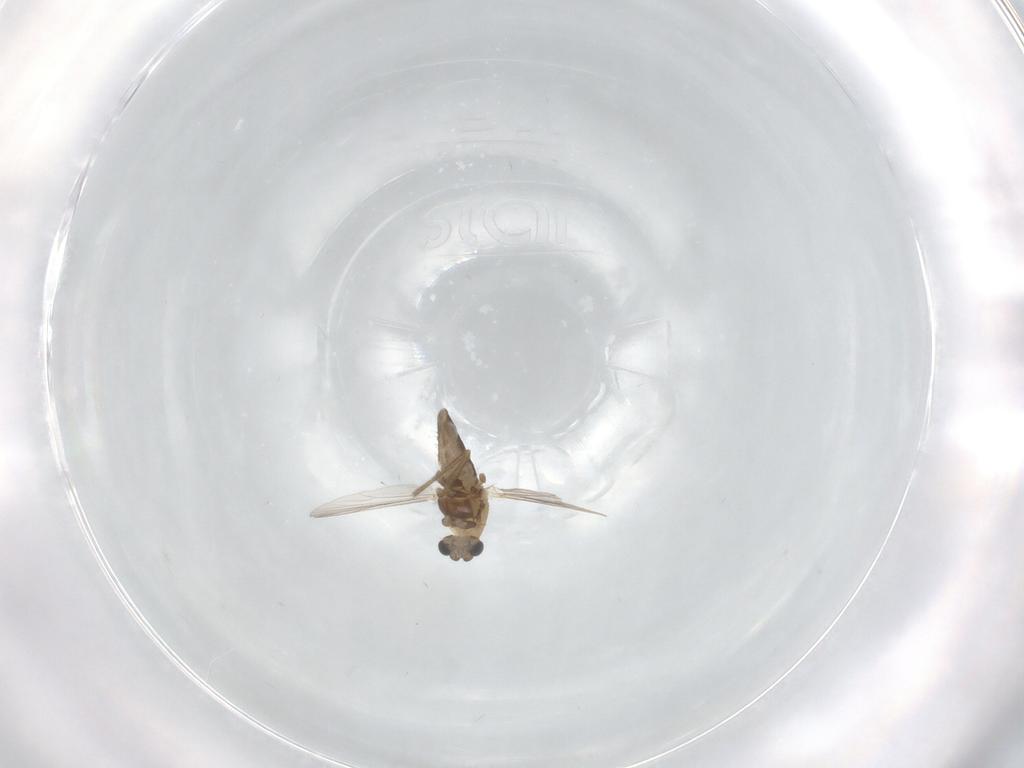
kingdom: Animalia
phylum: Arthropoda
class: Insecta
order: Diptera
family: Chironomidae
